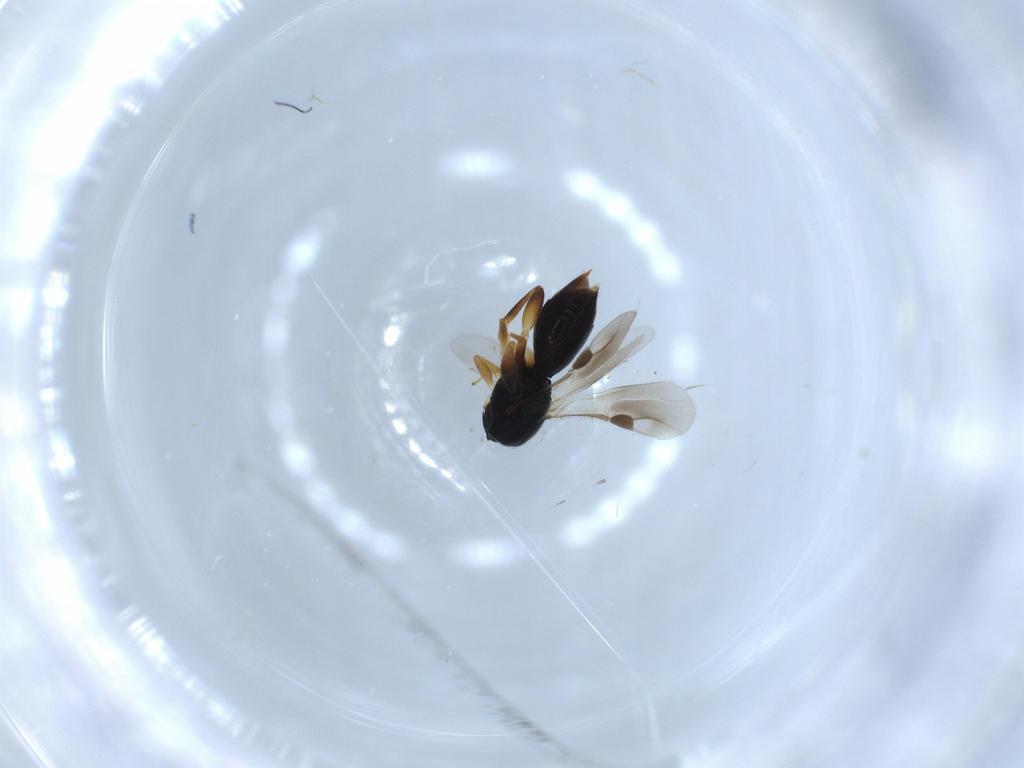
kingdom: Animalia
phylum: Arthropoda
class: Insecta
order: Hymenoptera
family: Megaspilidae
